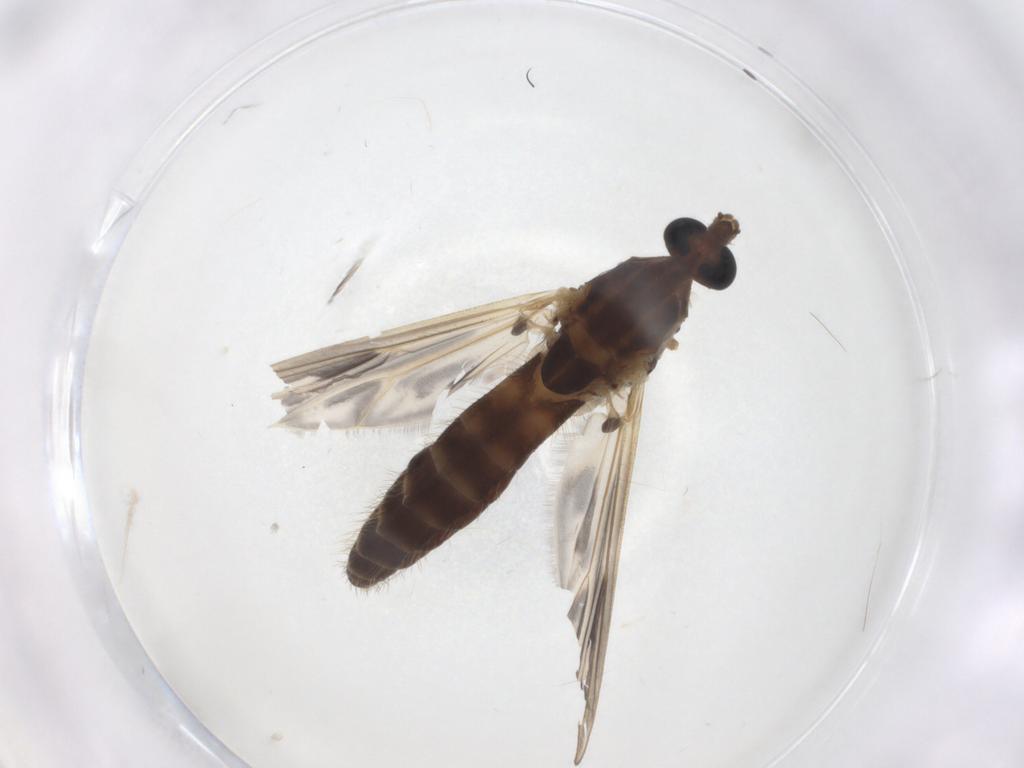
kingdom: Animalia
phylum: Arthropoda
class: Insecta
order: Diptera
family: Chironomidae
